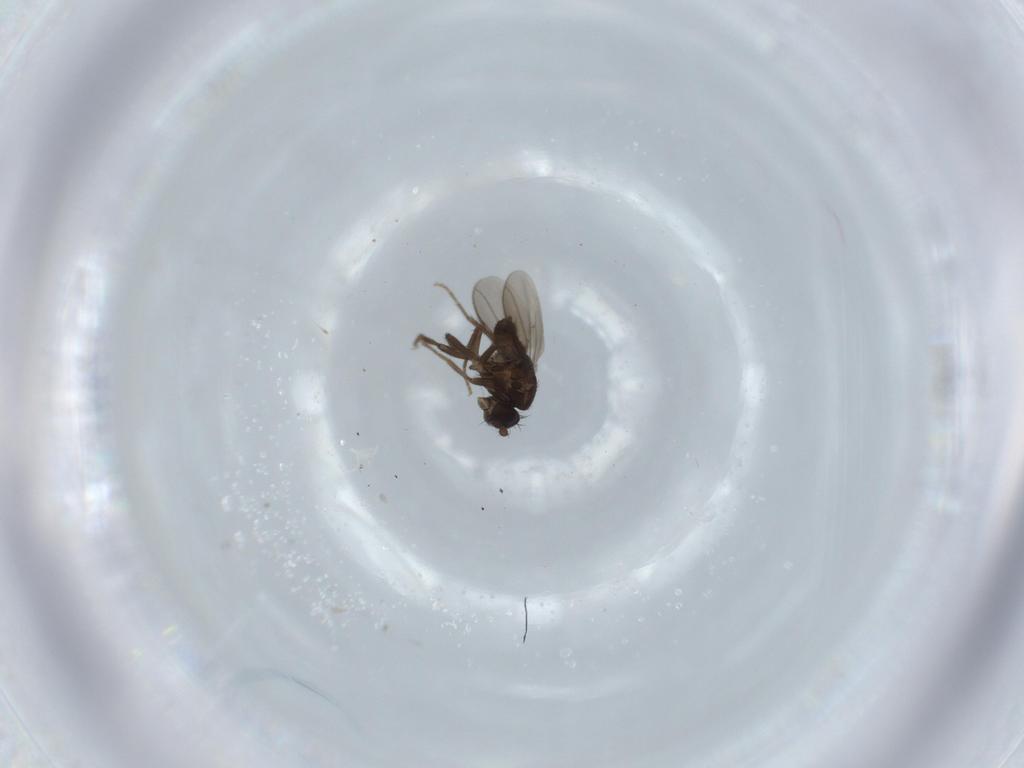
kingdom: Animalia
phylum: Arthropoda
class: Insecta
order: Diptera
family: Sphaeroceridae
